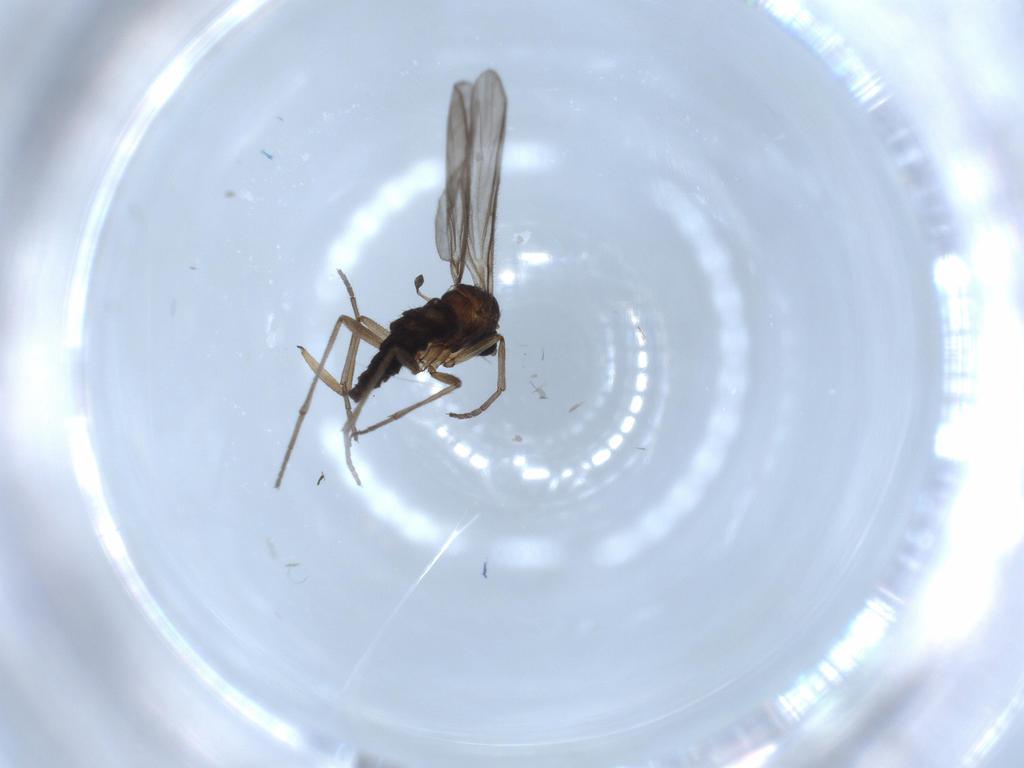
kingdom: Animalia
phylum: Arthropoda
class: Insecta
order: Diptera
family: Sciaridae
